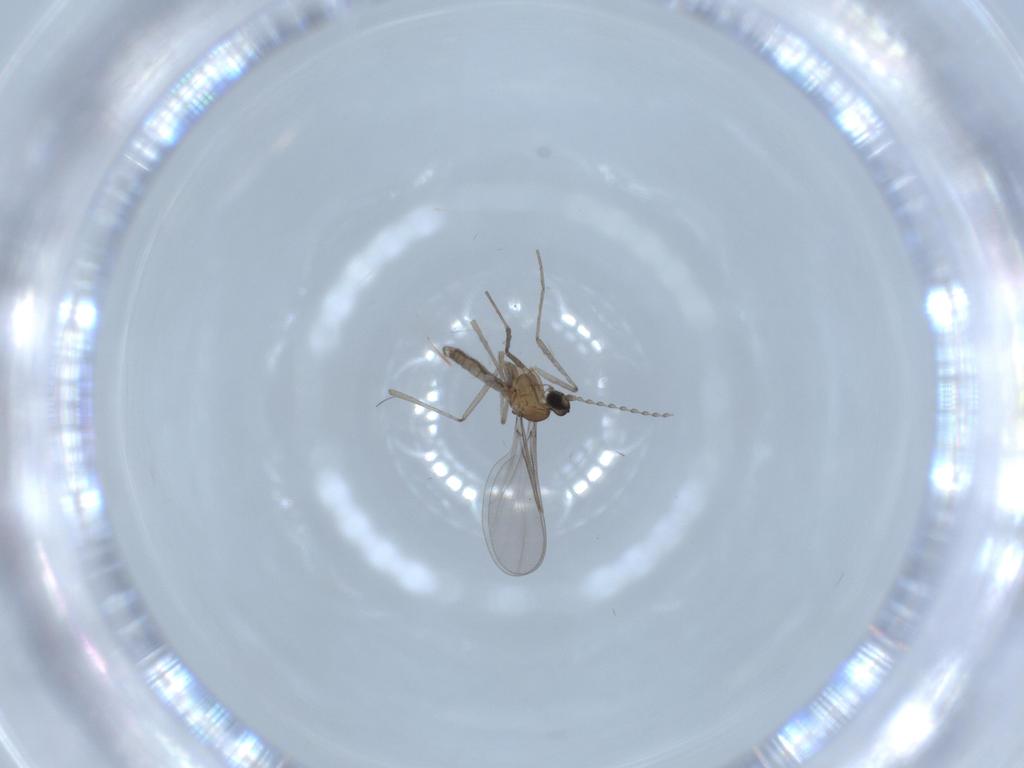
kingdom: Animalia
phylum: Arthropoda
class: Insecta
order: Diptera
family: Cecidomyiidae
